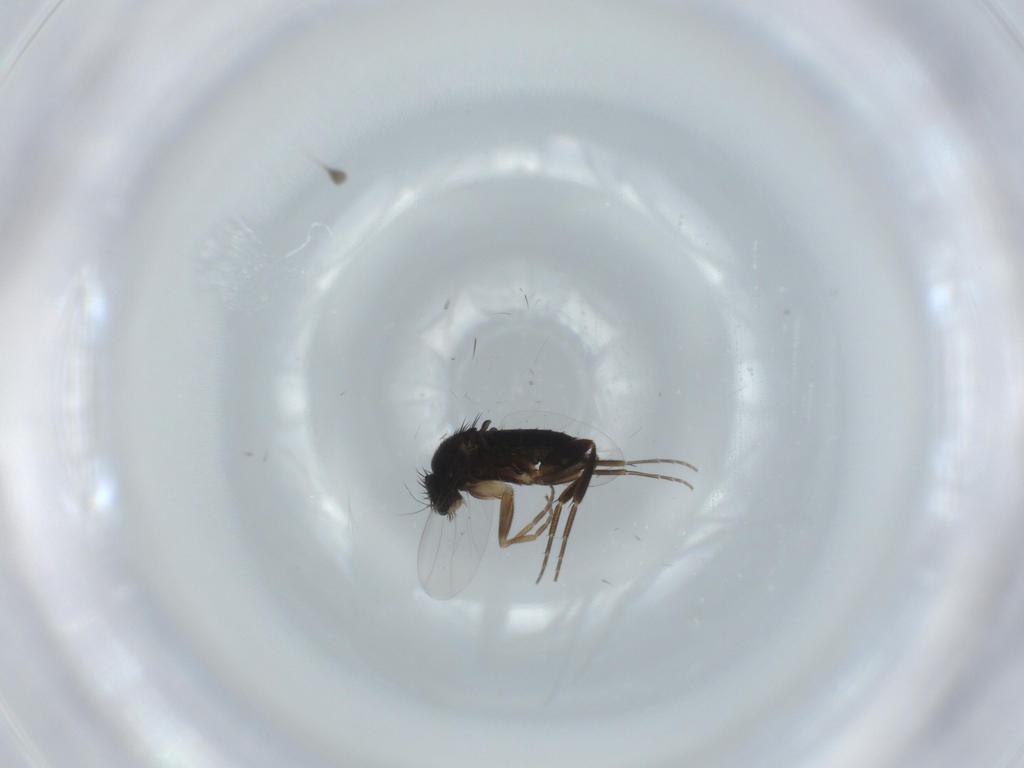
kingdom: Animalia
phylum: Arthropoda
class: Insecta
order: Diptera
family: Phoridae
